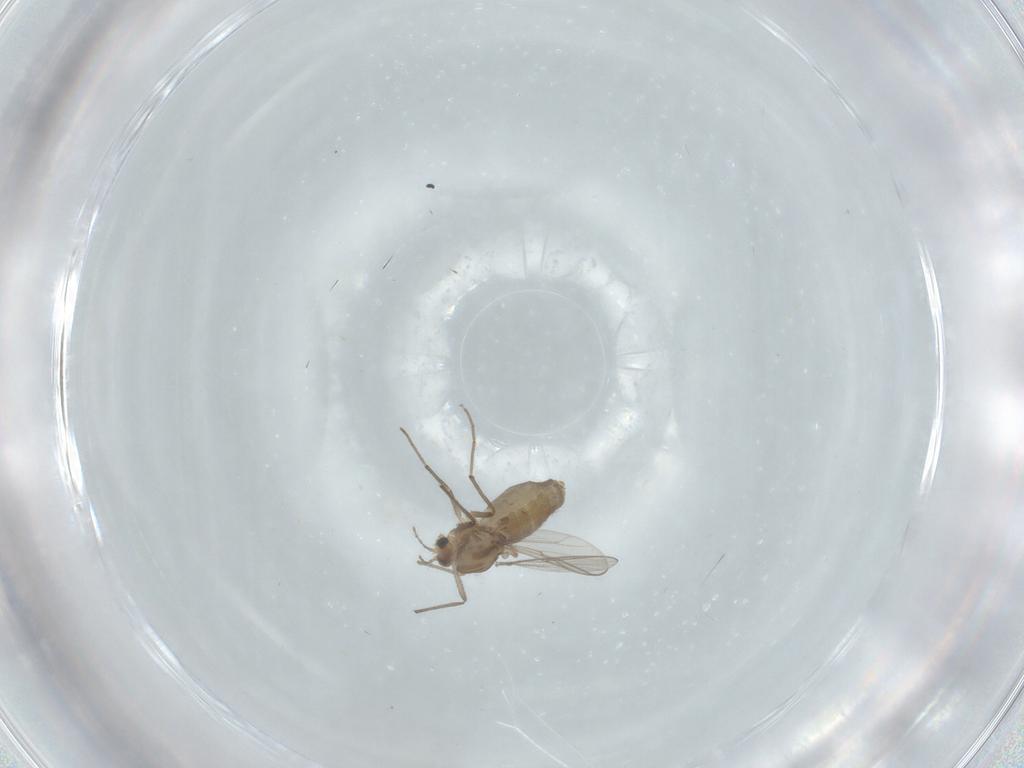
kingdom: Animalia
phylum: Arthropoda
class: Insecta
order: Diptera
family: Chironomidae
